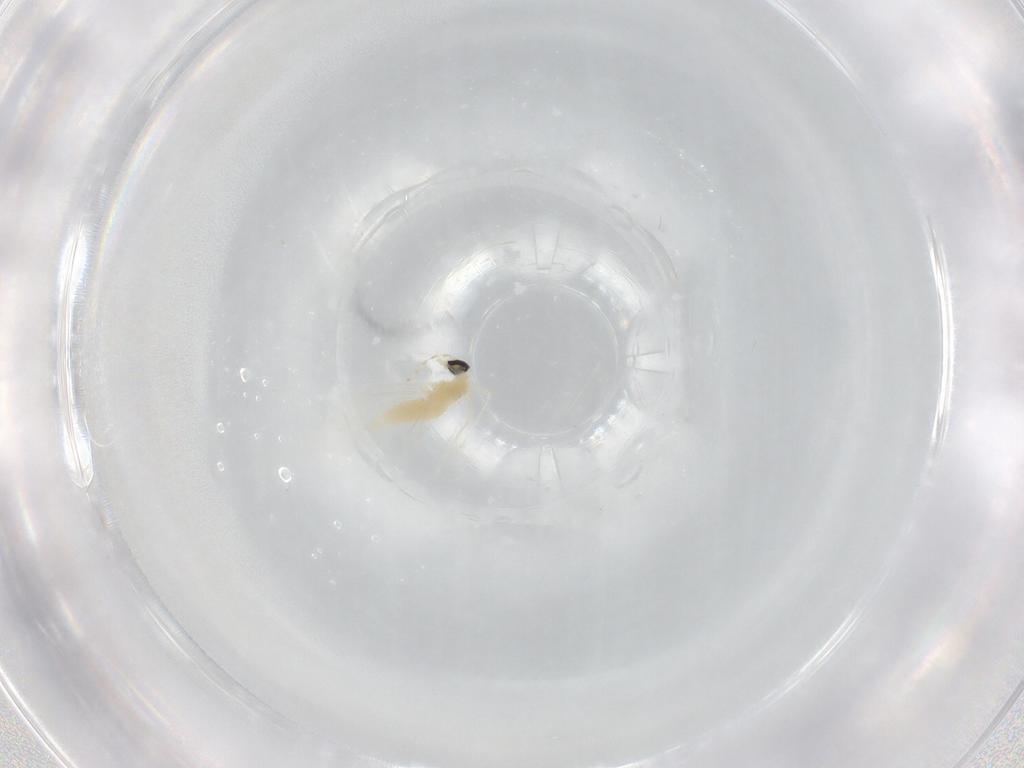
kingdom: Animalia
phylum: Arthropoda
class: Insecta
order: Diptera
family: Cecidomyiidae
